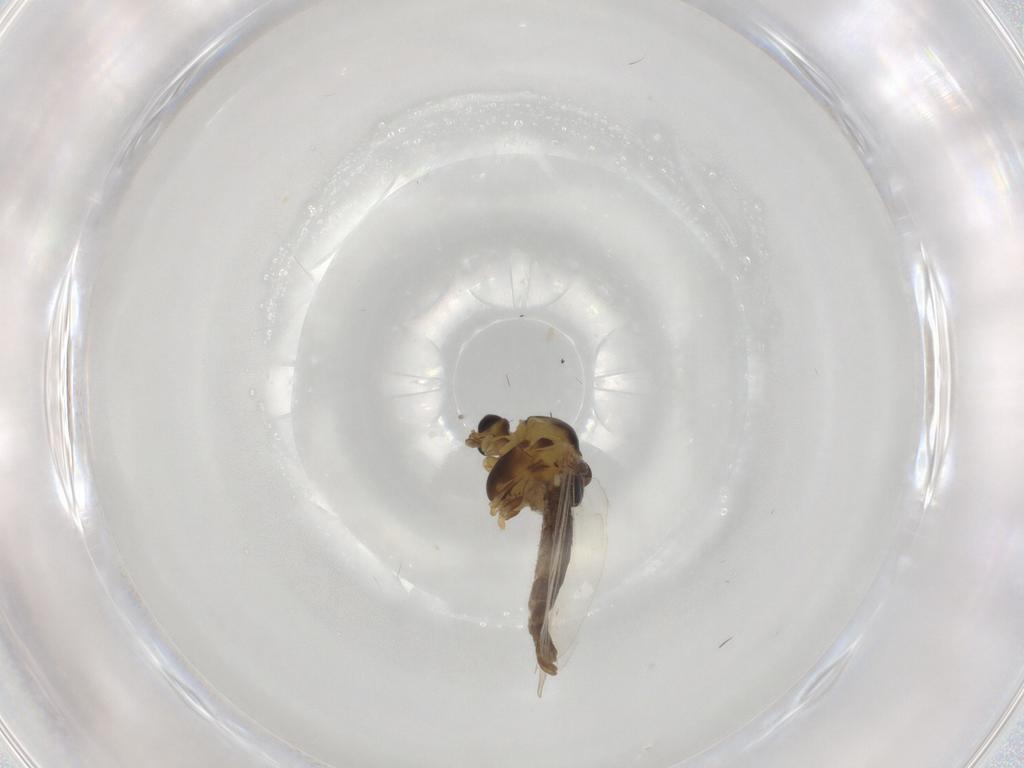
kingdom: Animalia
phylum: Arthropoda
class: Insecta
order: Diptera
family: Chironomidae
